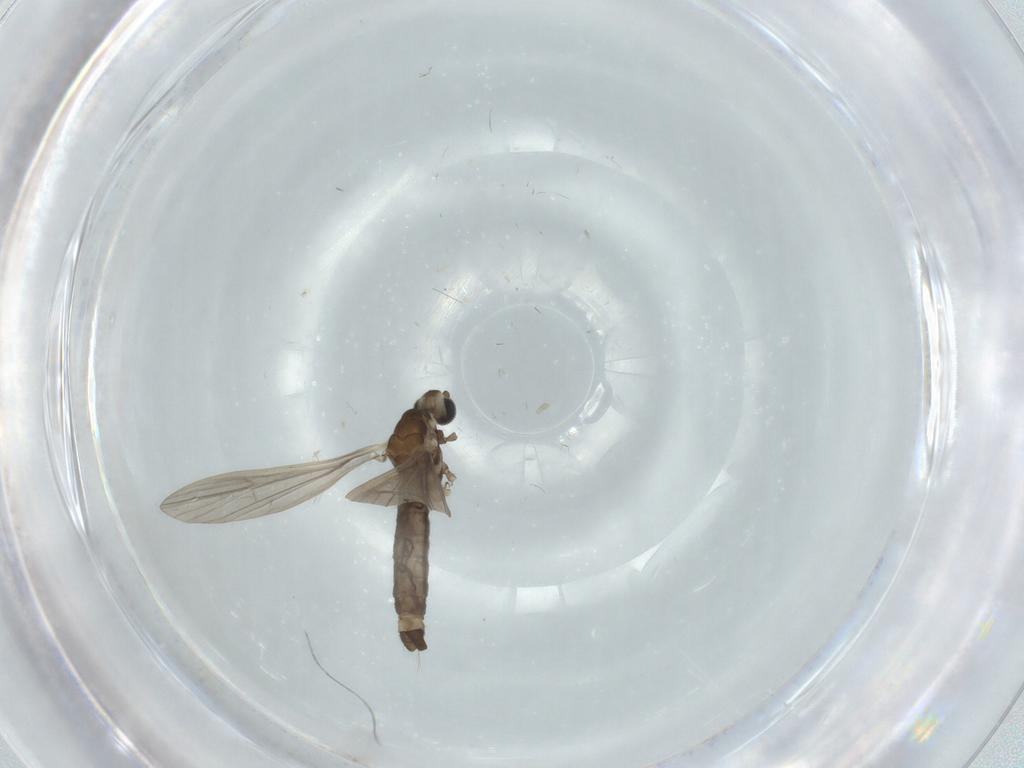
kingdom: Animalia
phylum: Arthropoda
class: Insecta
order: Diptera
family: Limoniidae
